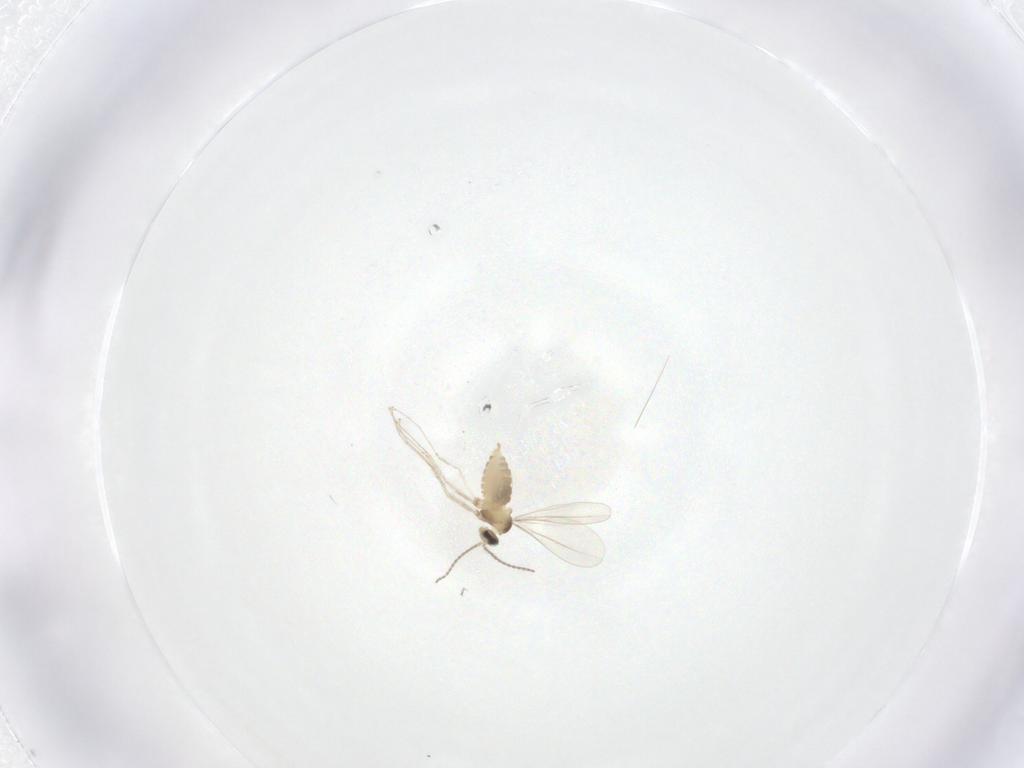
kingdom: Animalia
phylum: Arthropoda
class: Insecta
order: Diptera
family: Cecidomyiidae
